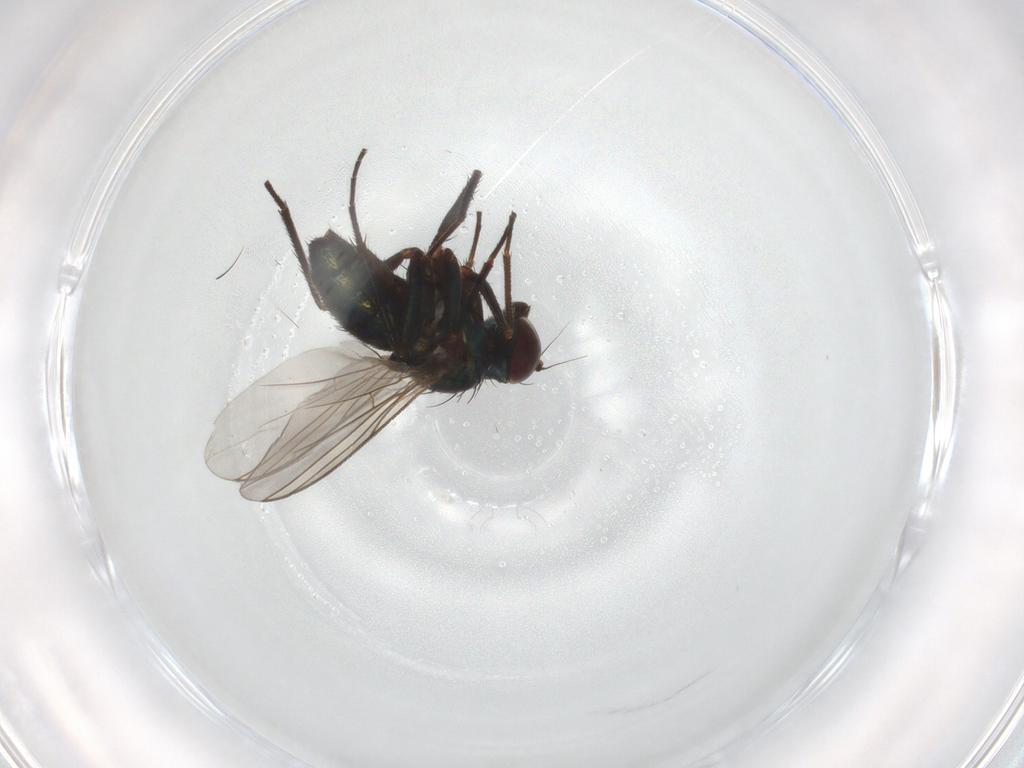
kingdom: Animalia
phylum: Arthropoda
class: Insecta
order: Diptera
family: Dolichopodidae
